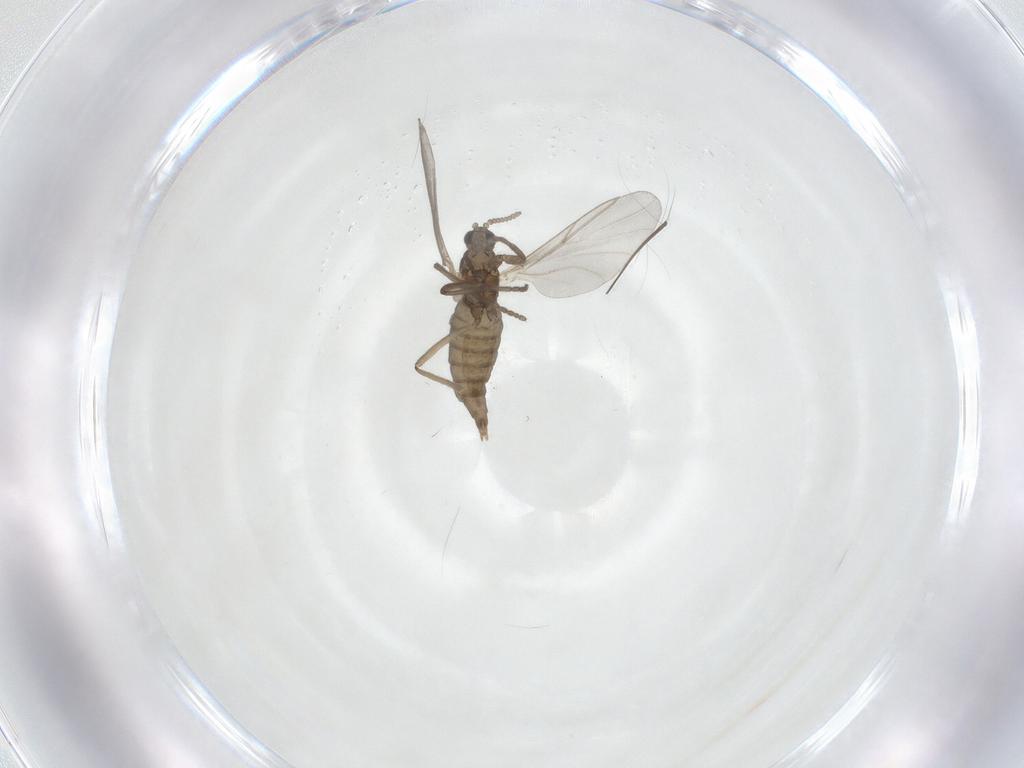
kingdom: Animalia
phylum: Arthropoda
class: Insecta
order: Diptera
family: Cecidomyiidae
